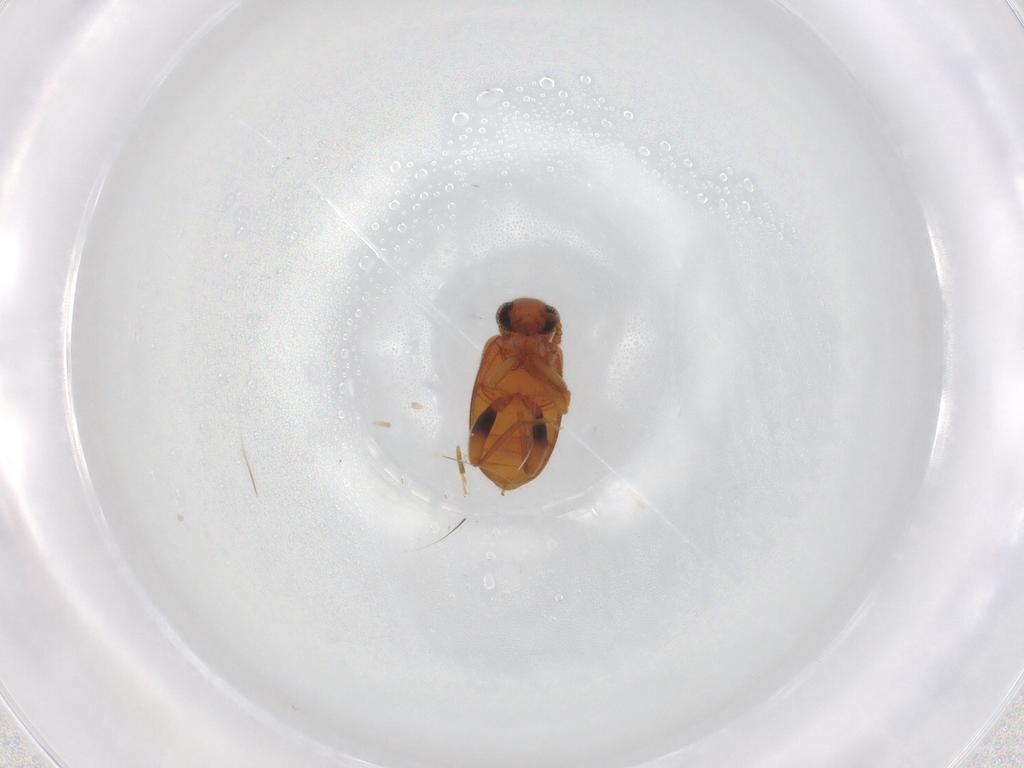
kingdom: Animalia
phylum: Arthropoda
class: Insecta
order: Coleoptera
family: Aderidae
